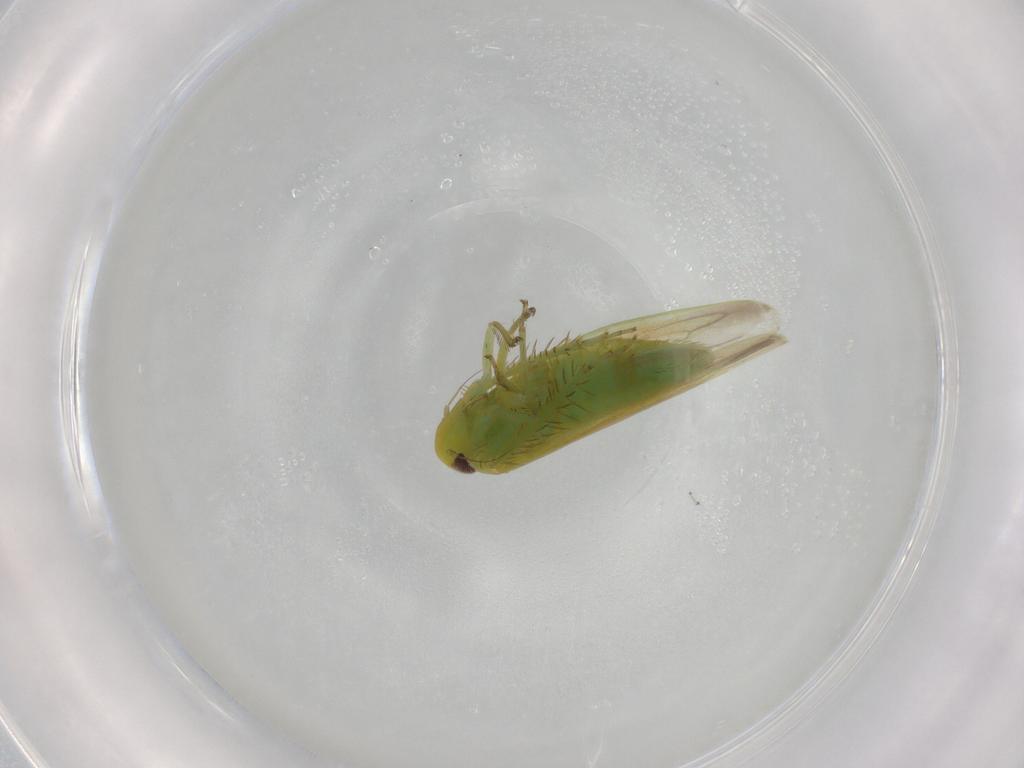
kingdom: Animalia
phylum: Arthropoda
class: Insecta
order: Hemiptera
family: Cicadellidae
